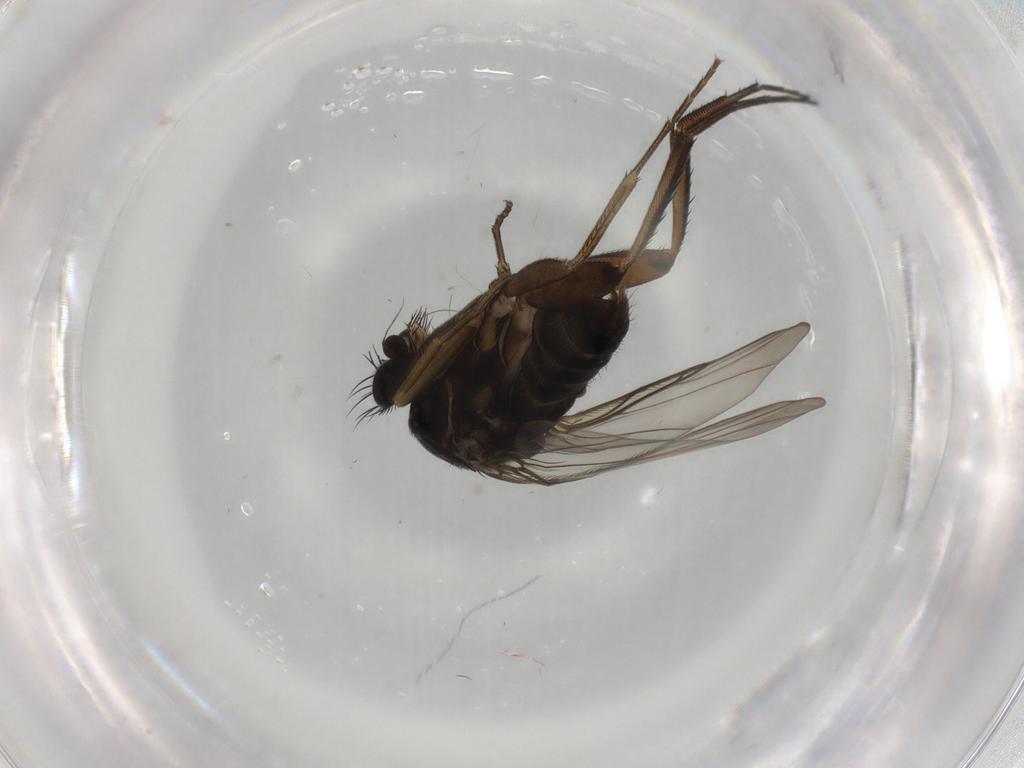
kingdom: Animalia
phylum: Arthropoda
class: Insecta
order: Diptera
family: Phoridae
